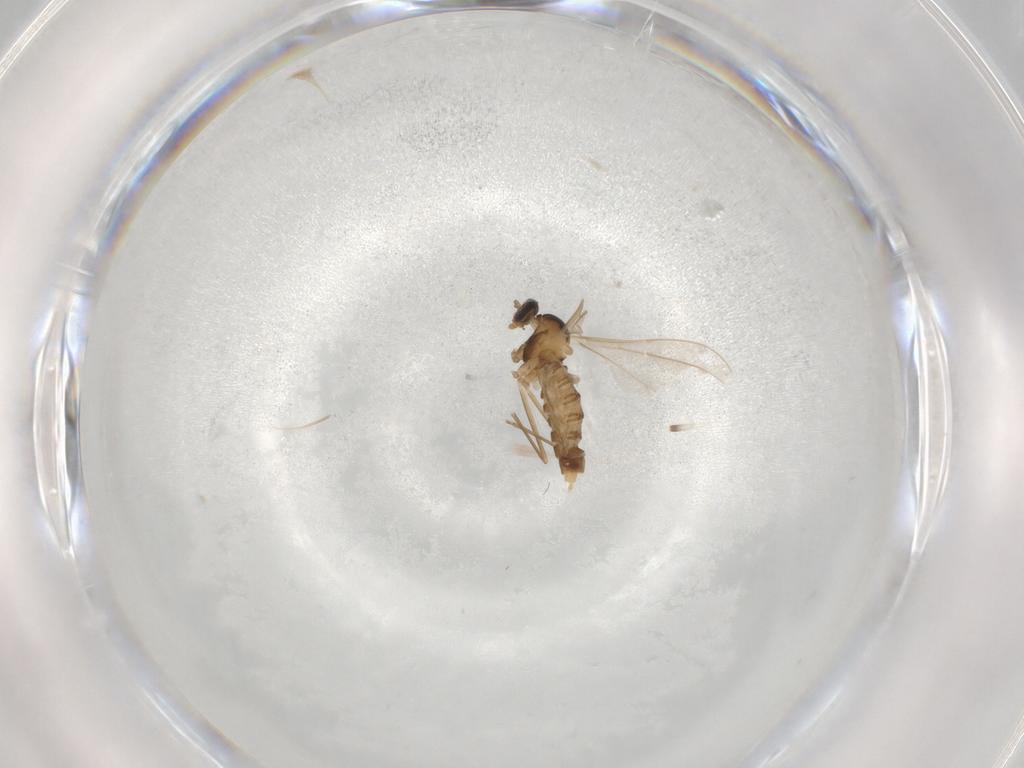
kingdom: Animalia
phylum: Arthropoda
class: Insecta
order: Diptera
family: Cecidomyiidae
